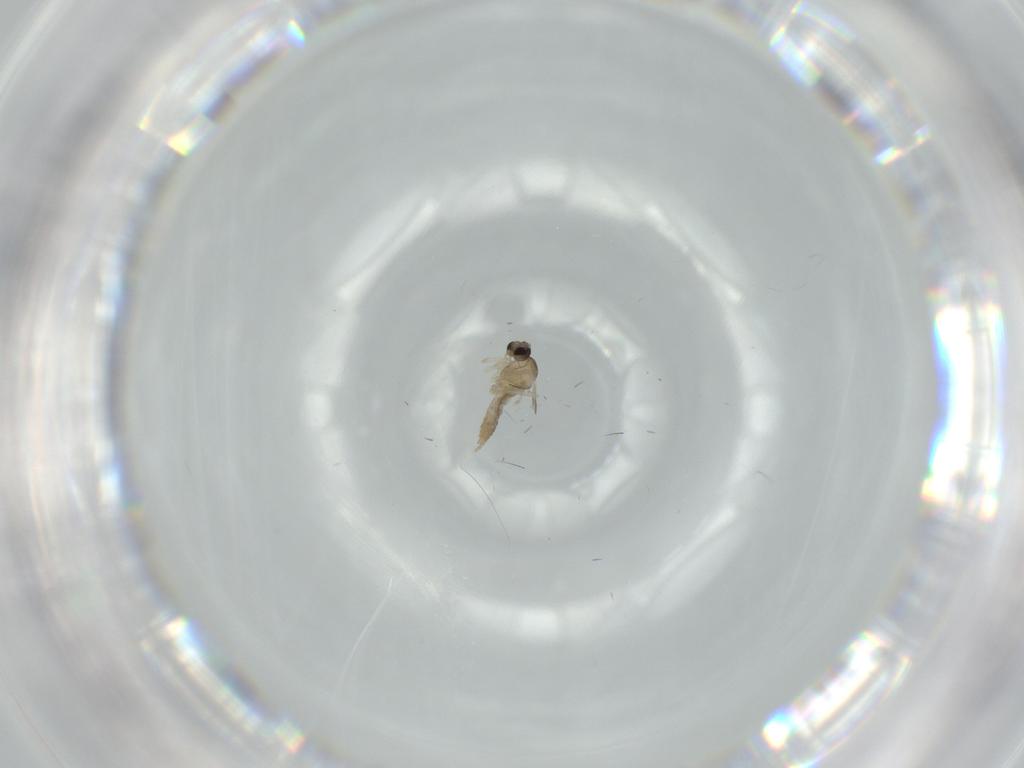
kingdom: Animalia
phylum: Arthropoda
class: Insecta
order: Diptera
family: Cecidomyiidae
